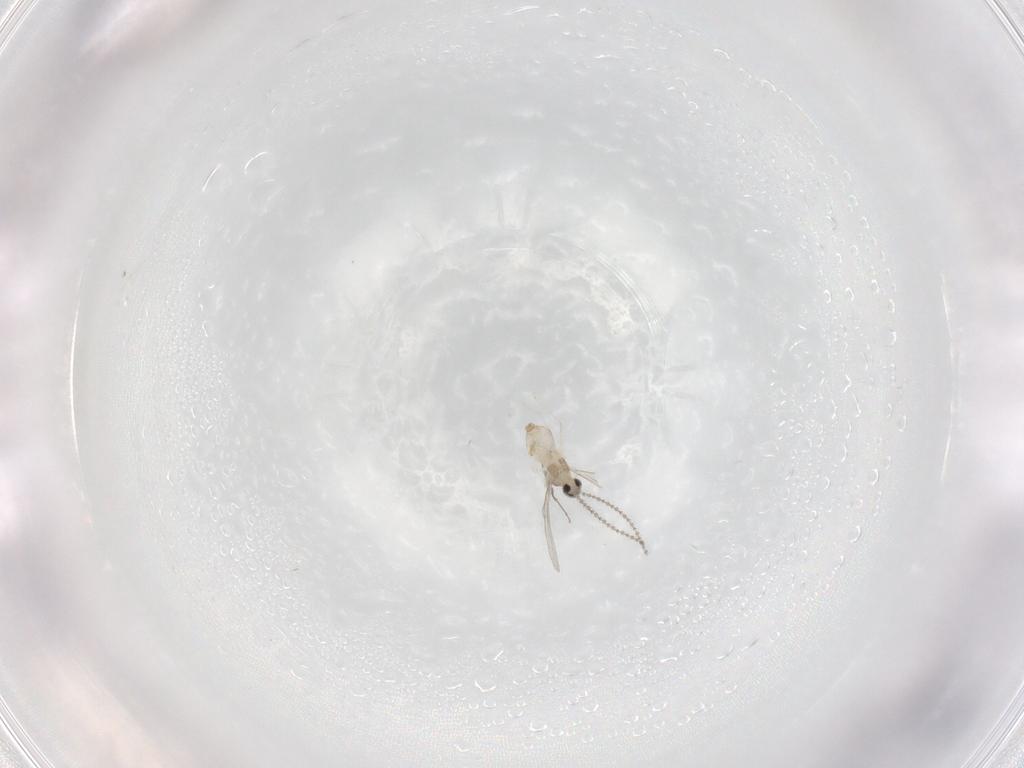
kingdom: Animalia
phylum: Arthropoda
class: Insecta
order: Diptera
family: Cecidomyiidae
